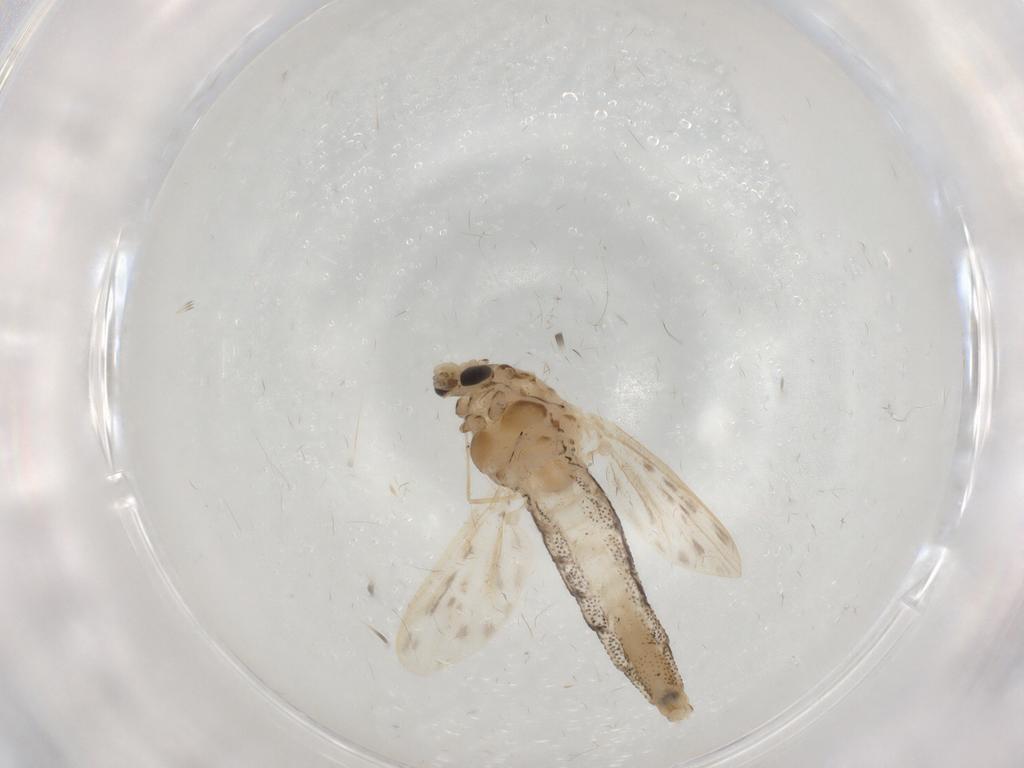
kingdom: Animalia
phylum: Arthropoda
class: Insecta
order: Diptera
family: Chaoboridae
